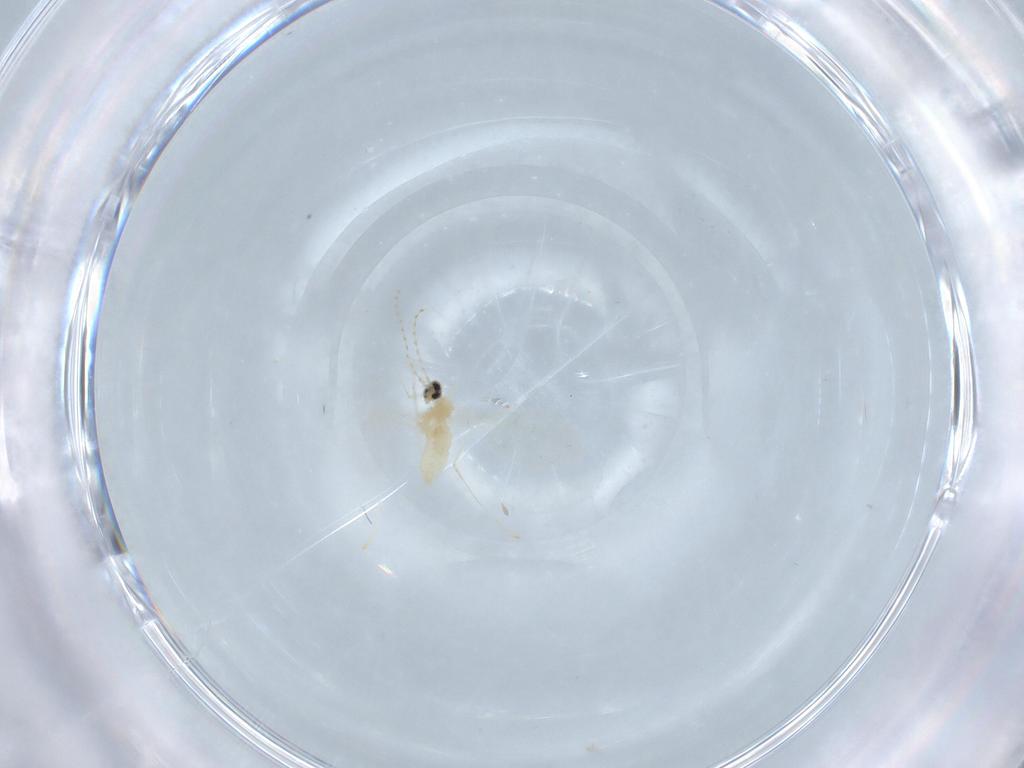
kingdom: Animalia
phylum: Arthropoda
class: Insecta
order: Diptera
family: Cecidomyiidae
